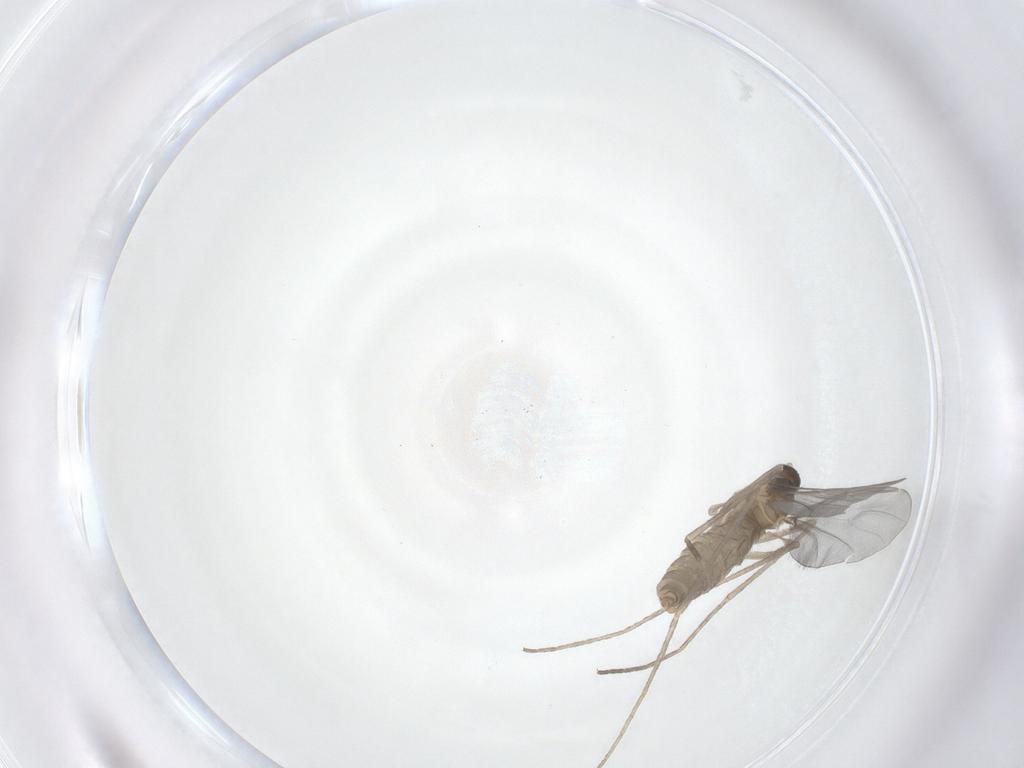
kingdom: Animalia
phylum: Arthropoda
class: Insecta
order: Diptera
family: Cecidomyiidae
